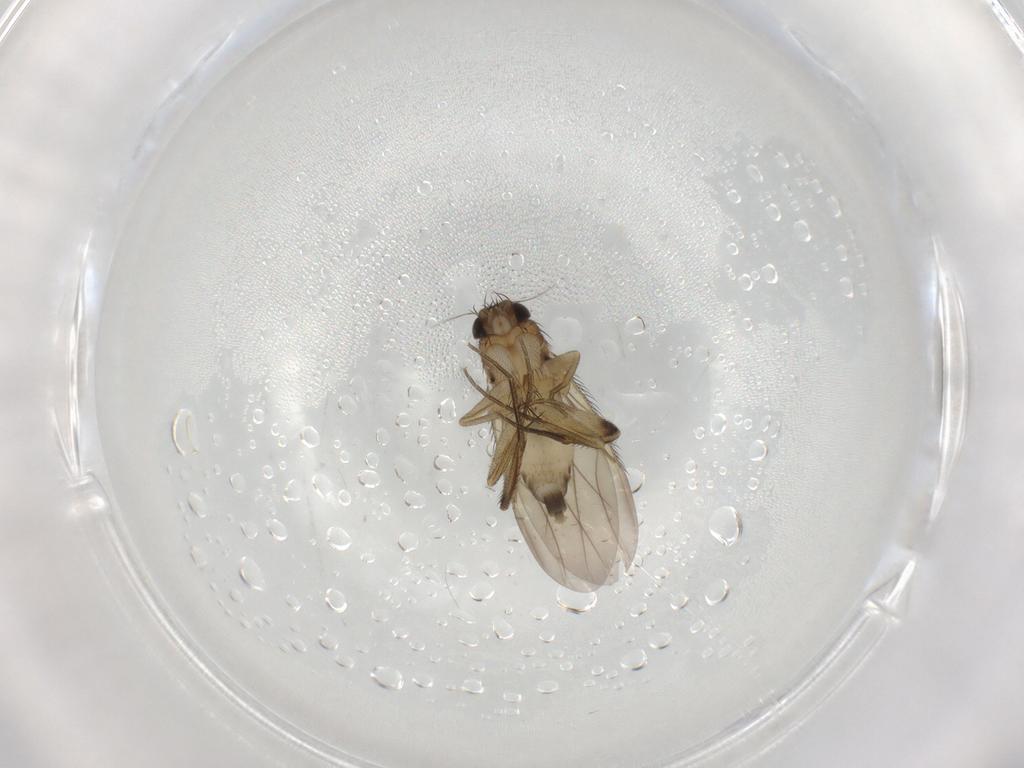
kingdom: Animalia
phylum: Arthropoda
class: Insecta
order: Diptera
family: Phoridae
